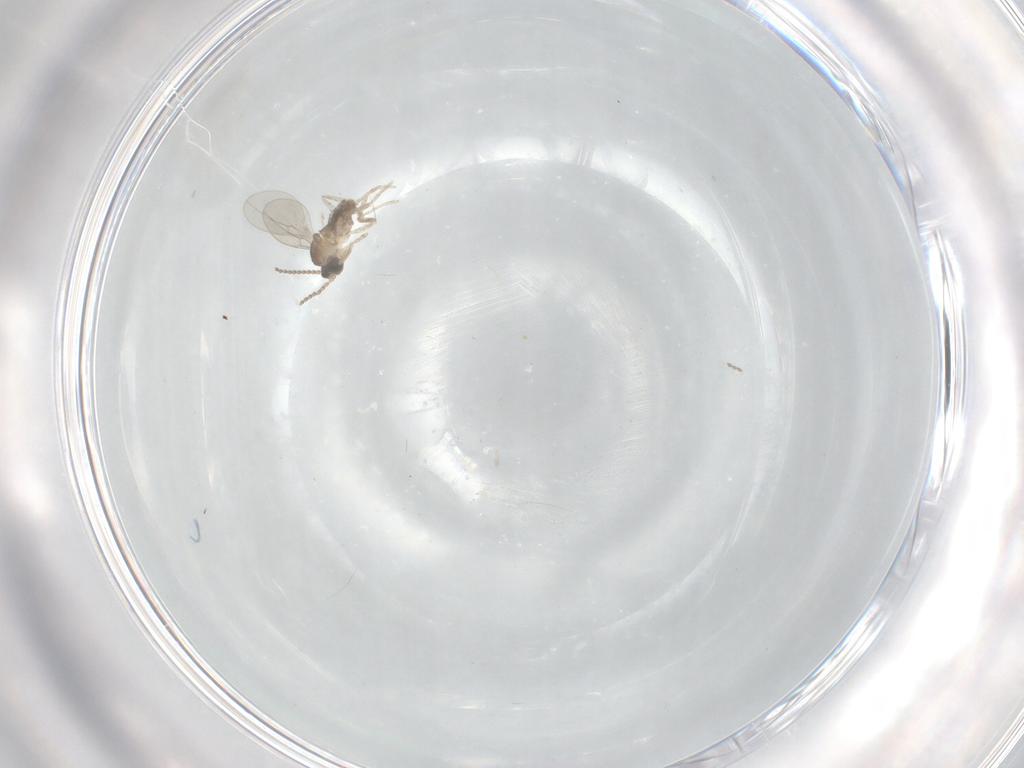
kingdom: Animalia
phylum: Arthropoda
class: Insecta
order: Diptera
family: Cecidomyiidae
